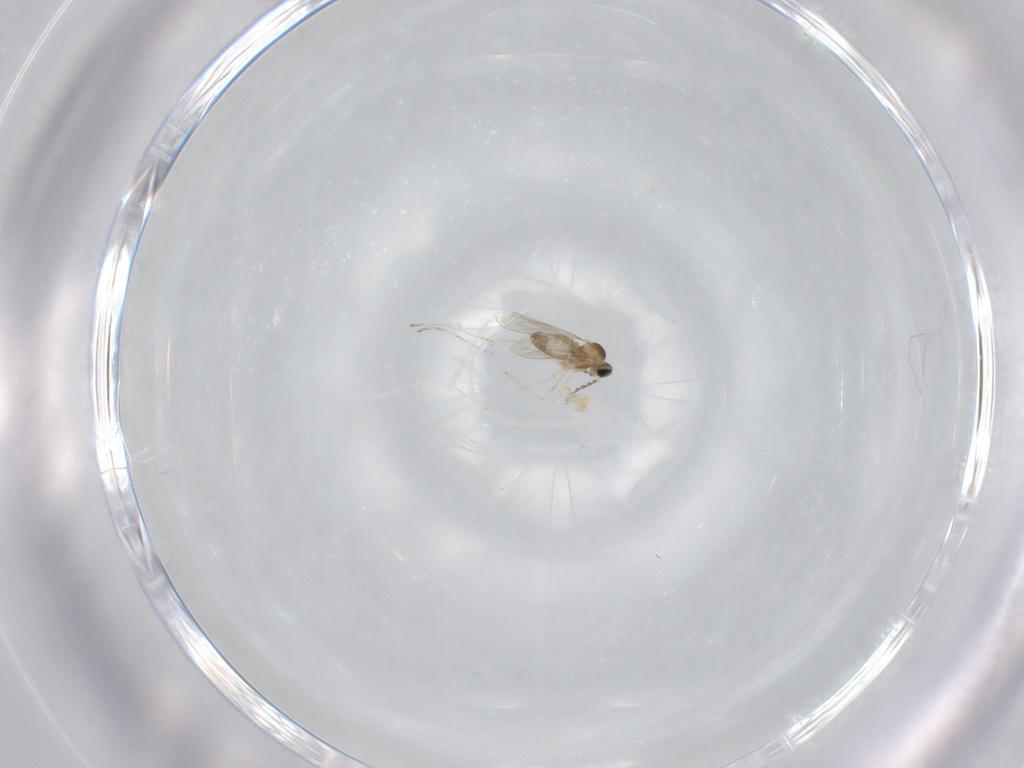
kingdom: Animalia
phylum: Arthropoda
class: Insecta
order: Diptera
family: Cecidomyiidae
